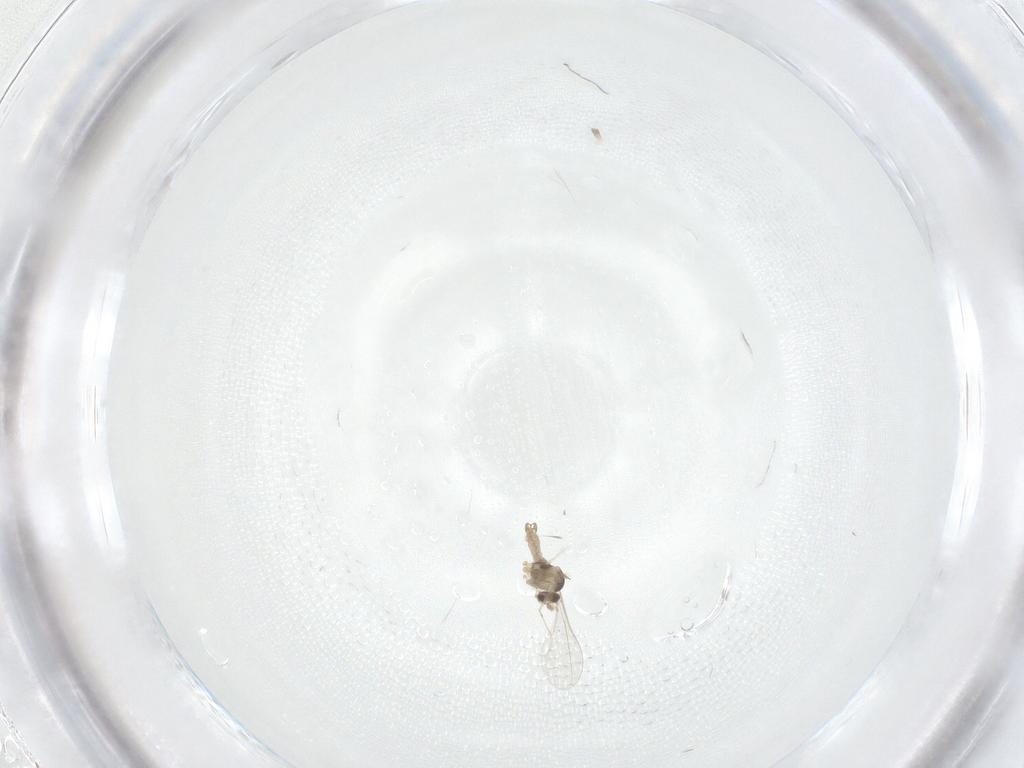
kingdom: Animalia
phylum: Arthropoda
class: Insecta
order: Diptera
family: Cecidomyiidae
